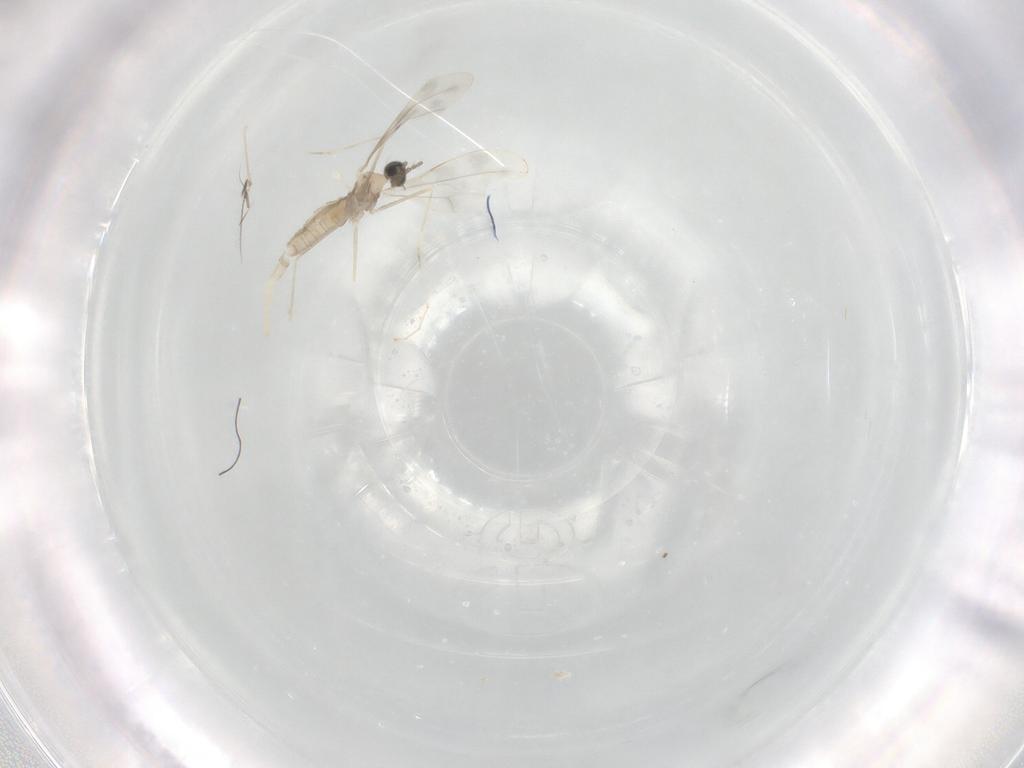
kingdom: Animalia
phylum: Arthropoda
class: Insecta
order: Diptera
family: Cecidomyiidae
